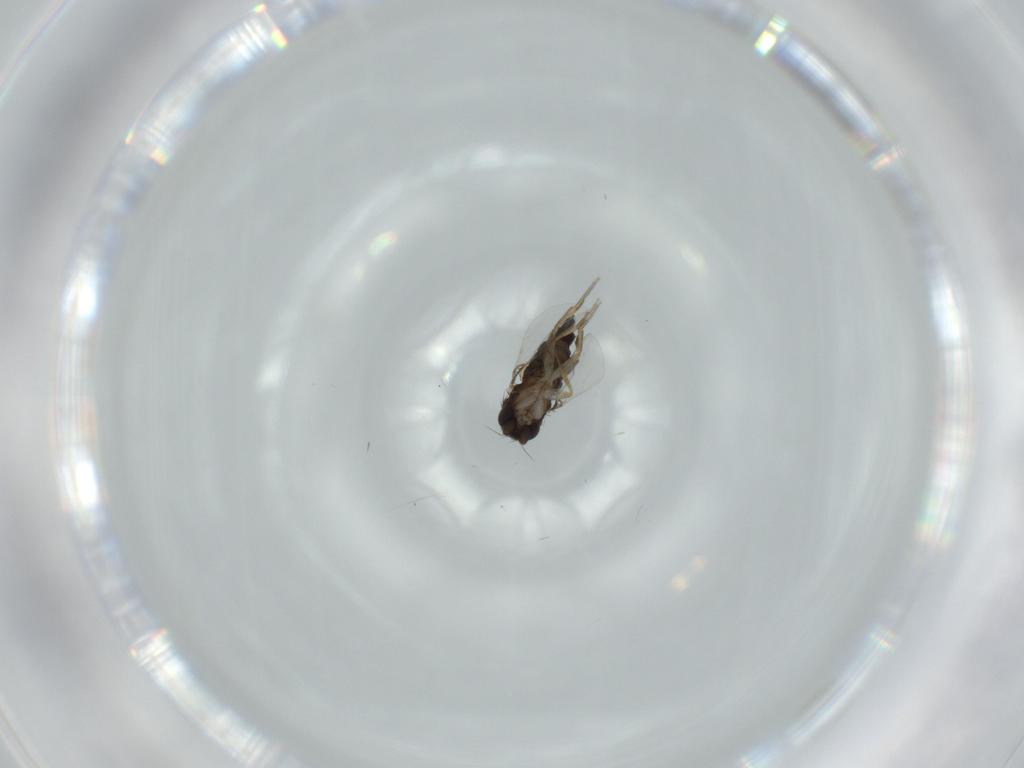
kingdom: Animalia
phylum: Arthropoda
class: Insecta
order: Diptera
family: Phoridae
